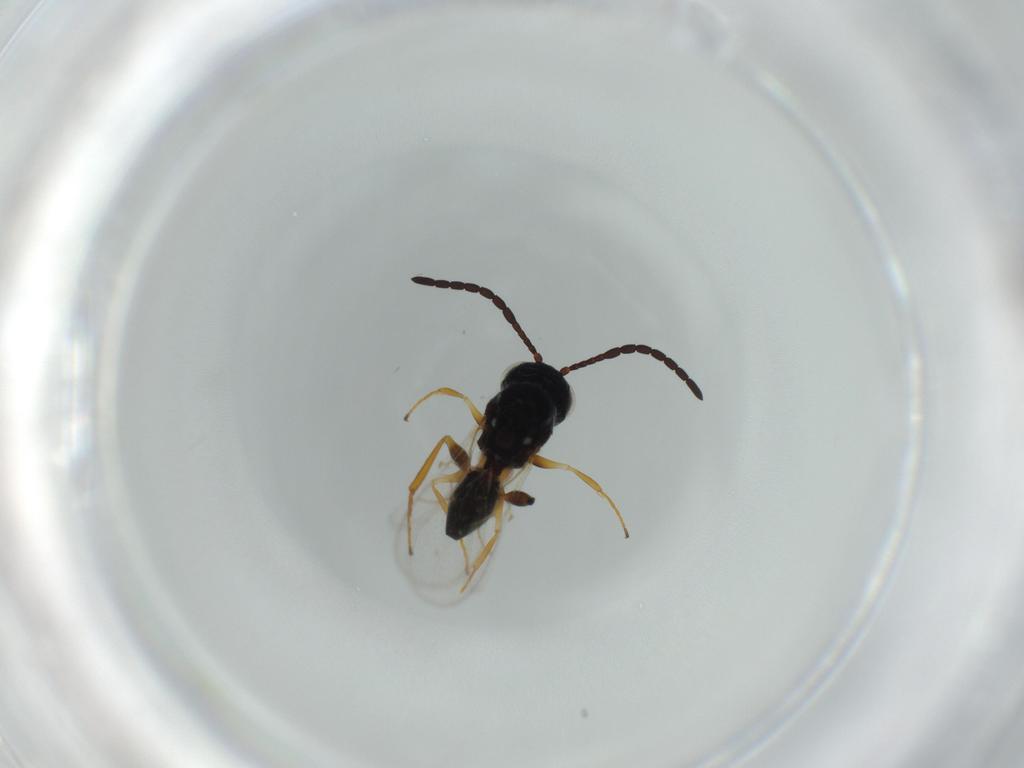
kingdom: Animalia
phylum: Arthropoda
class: Insecta
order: Hymenoptera
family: Figitidae
